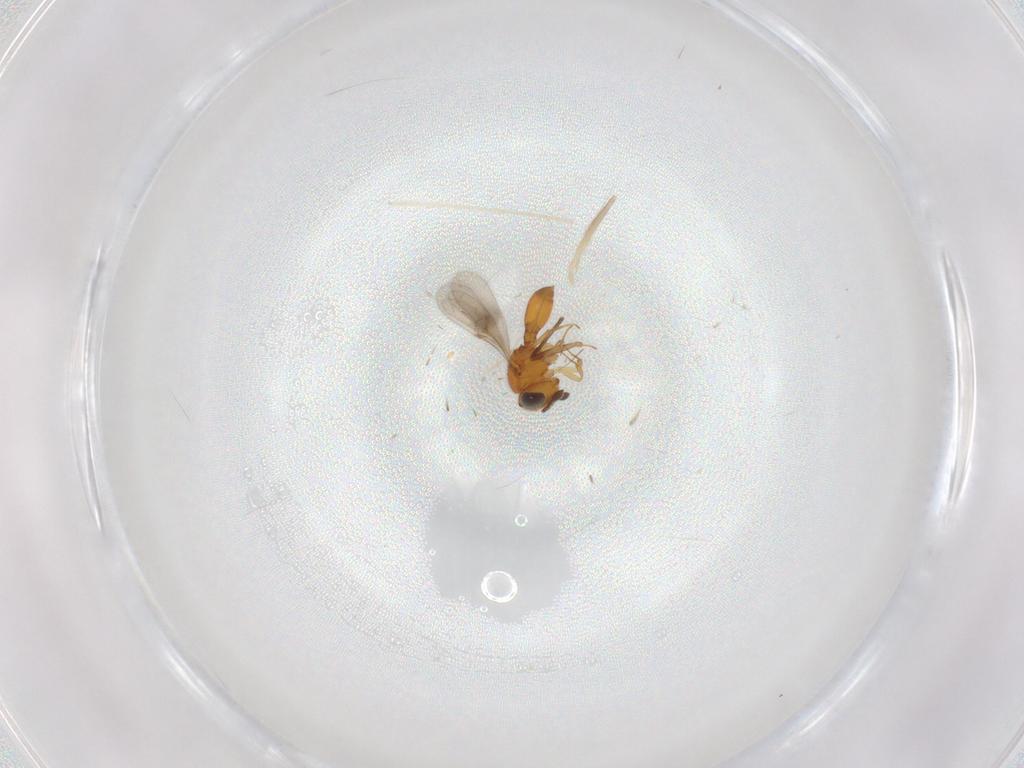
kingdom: Animalia
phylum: Arthropoda
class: Insecta
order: Hymenoptera
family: Scelionidae
